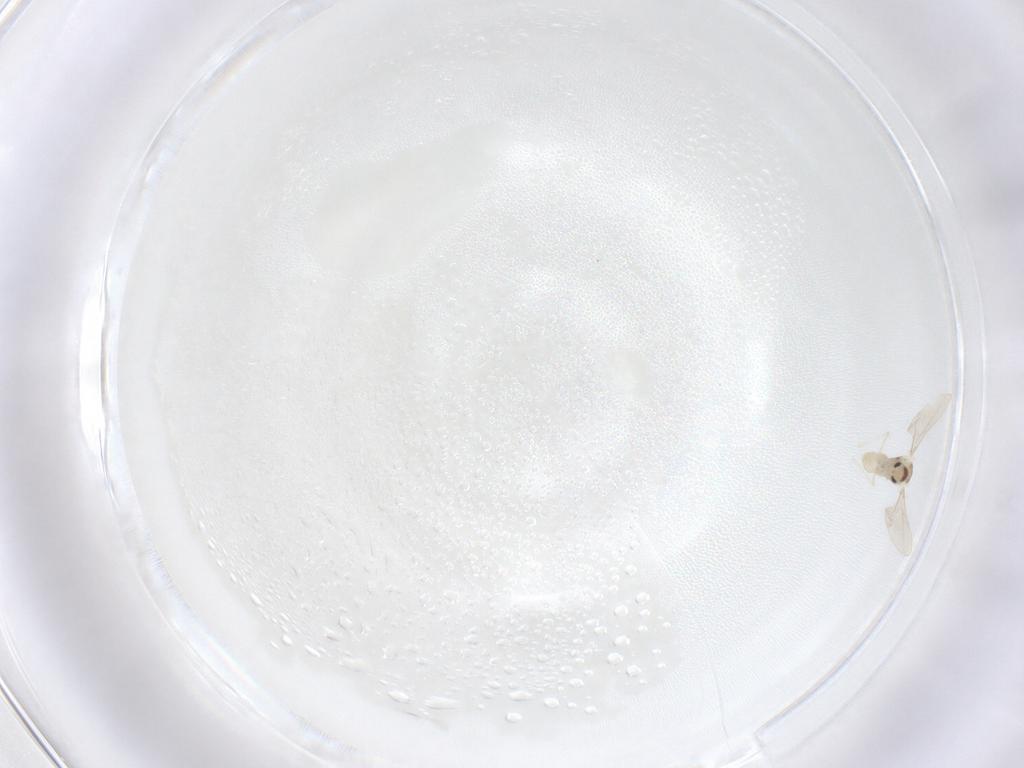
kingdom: Animalia
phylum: Arthropoda
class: Insecta
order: Diptera
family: Cecidomyiidae
